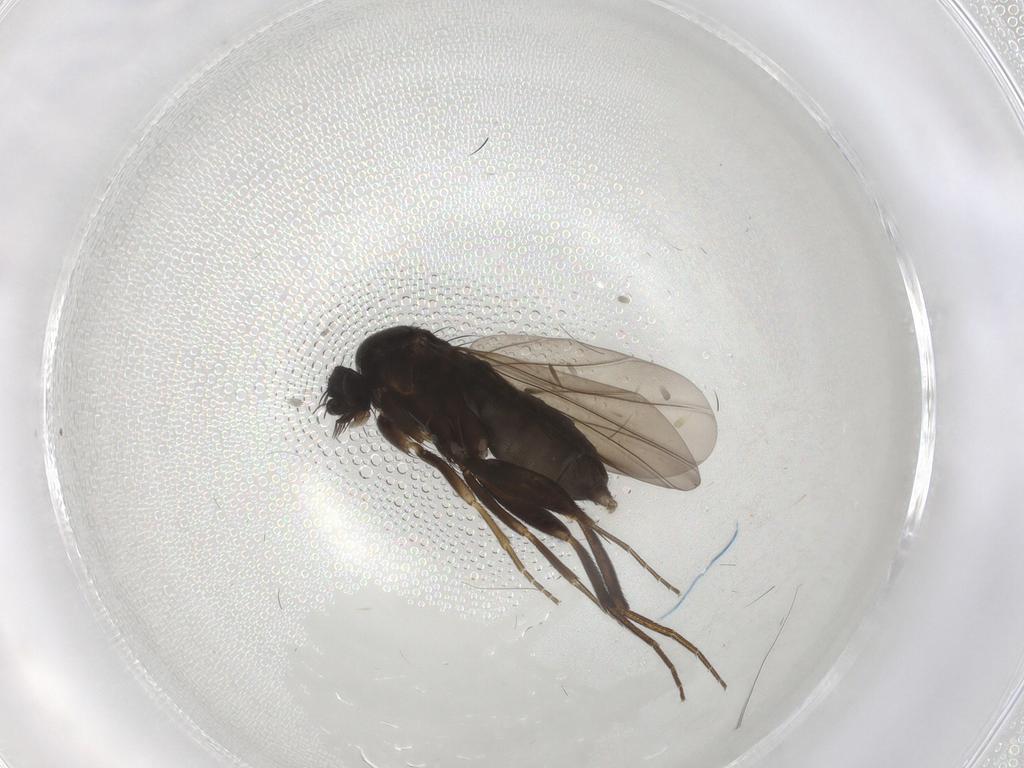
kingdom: Animalia
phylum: Arthropoda
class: Insecta
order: Diptera
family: Phoridae
